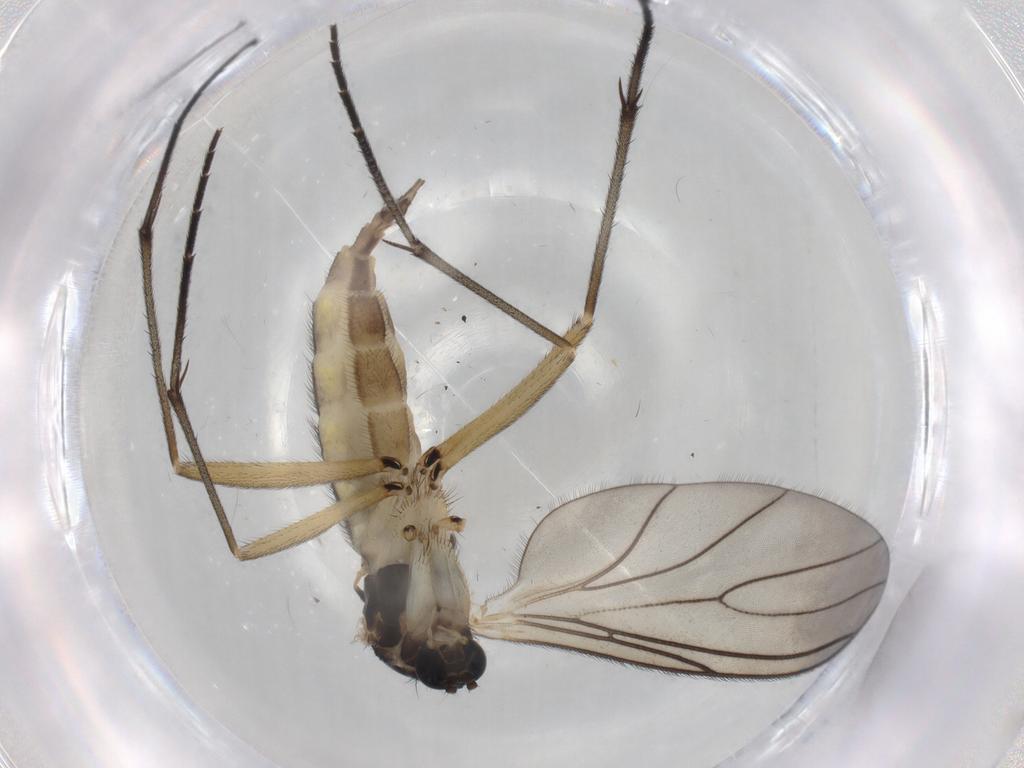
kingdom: Animalia
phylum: Arthropoda
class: Insecta
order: Diptera
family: Sciaridae
